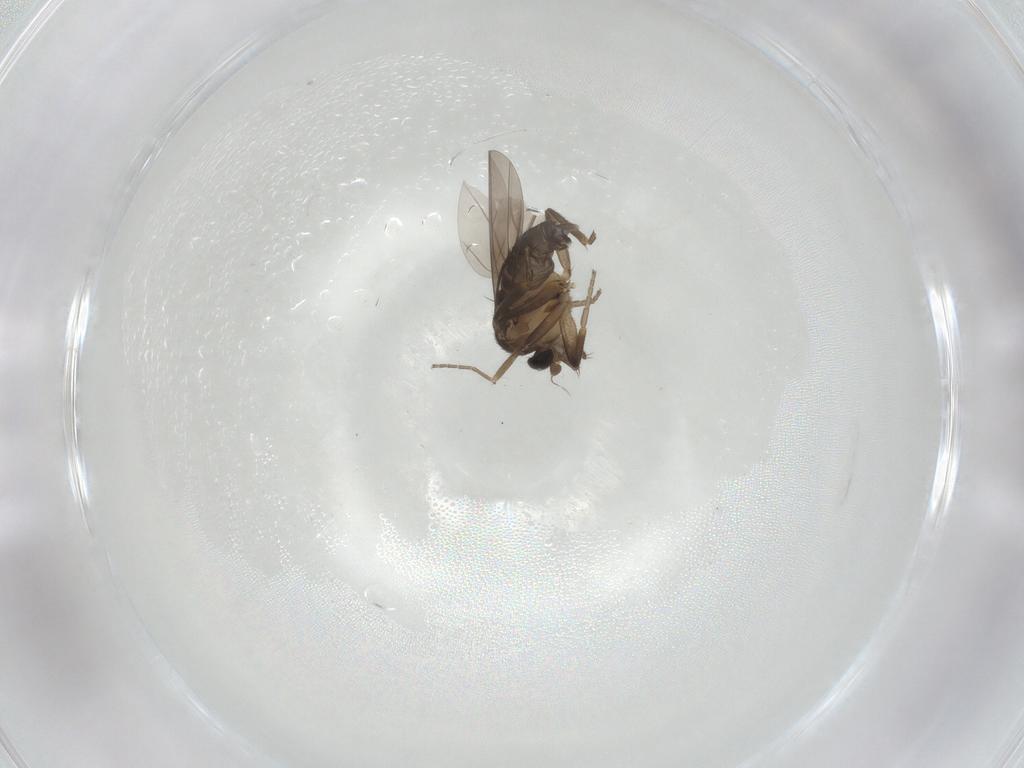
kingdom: Animalia
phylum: Arthropoda
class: Insecta
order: Diptera
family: Phoridae
